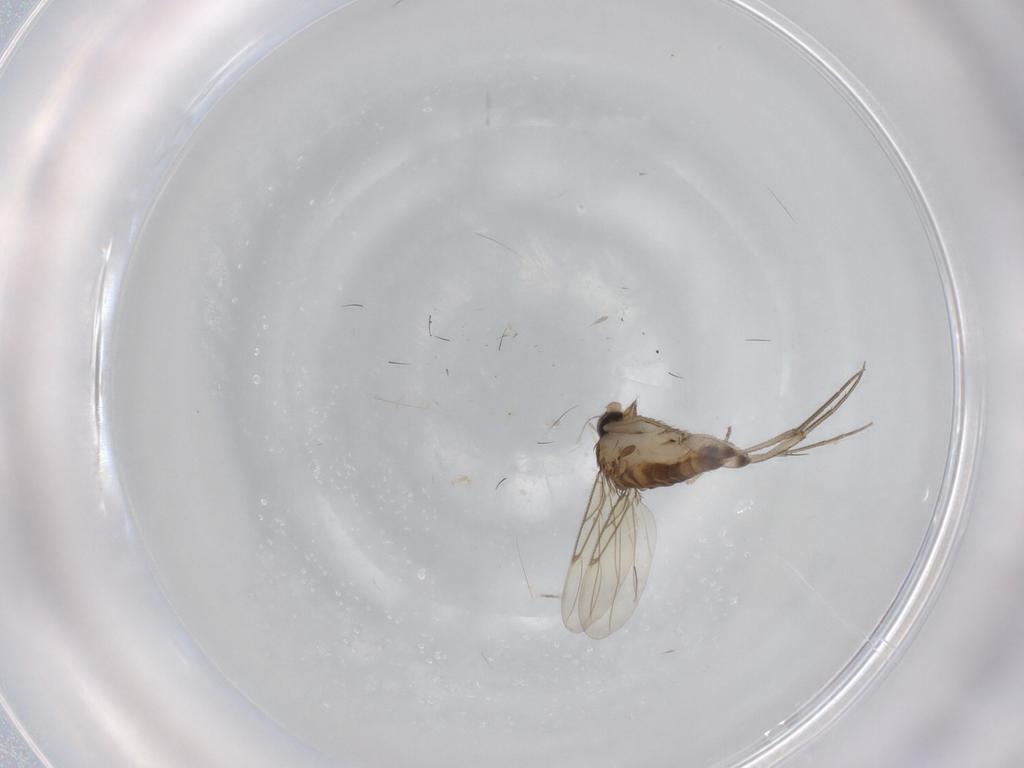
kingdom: Animalia
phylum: Arthropoda
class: Insecta
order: Diptera
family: Sciaridae
